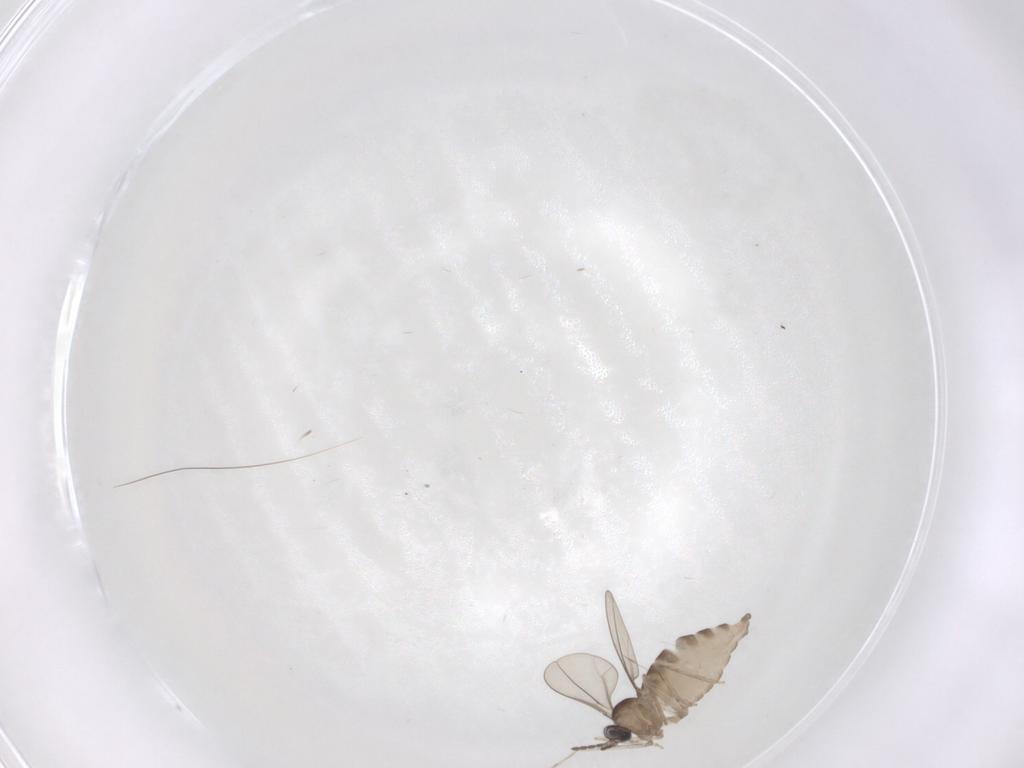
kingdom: Animalia
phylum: Arthropoda
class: Insecta
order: Diptera
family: Cecidomyiidae
